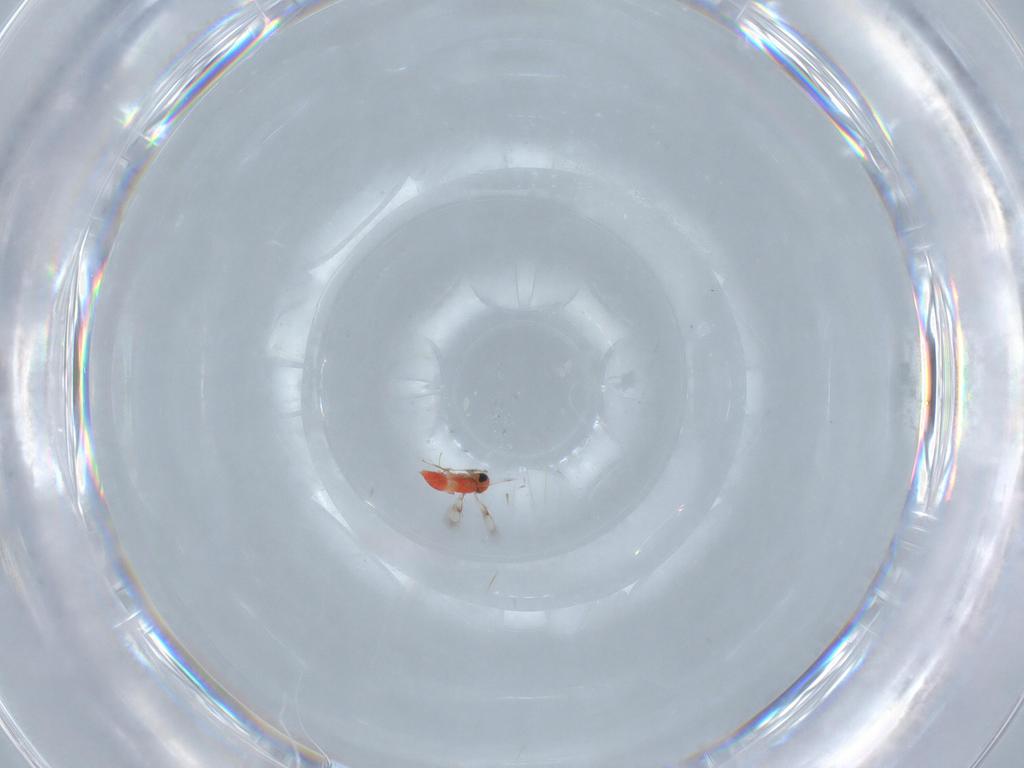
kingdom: Animalia
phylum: Arthropoda
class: Insecta
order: Hymenoptera
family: Trichogrammatidae
